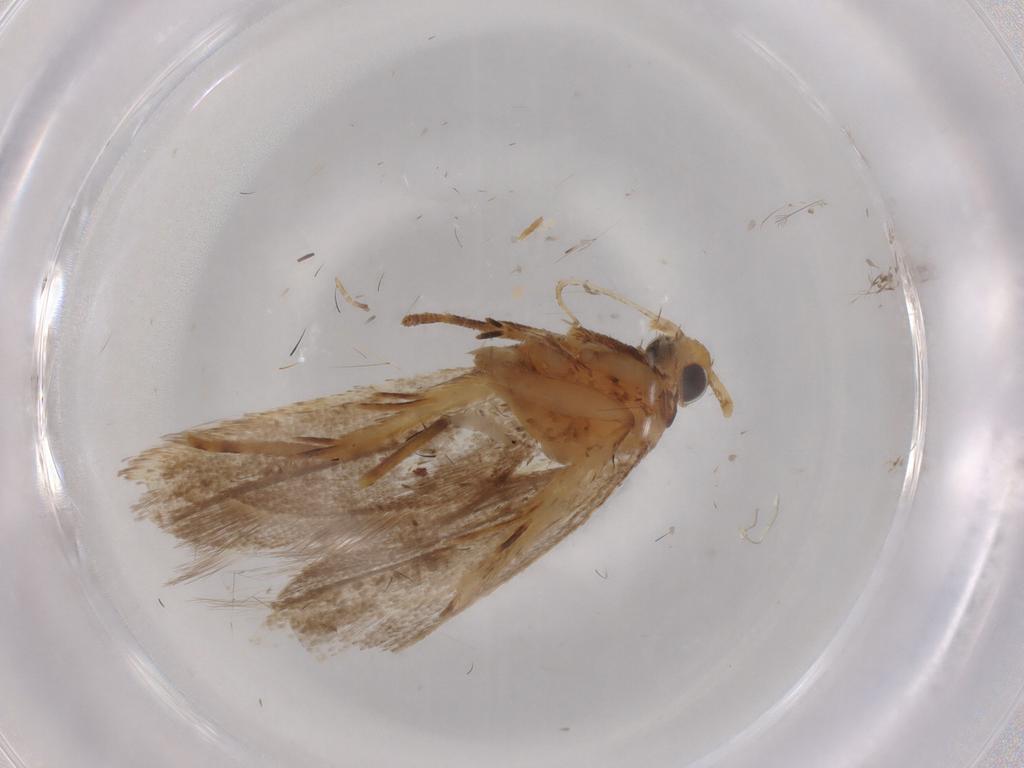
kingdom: Animalia
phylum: Arthropoda
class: Insecta
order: Lepidoptera
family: Lecithoceridae
